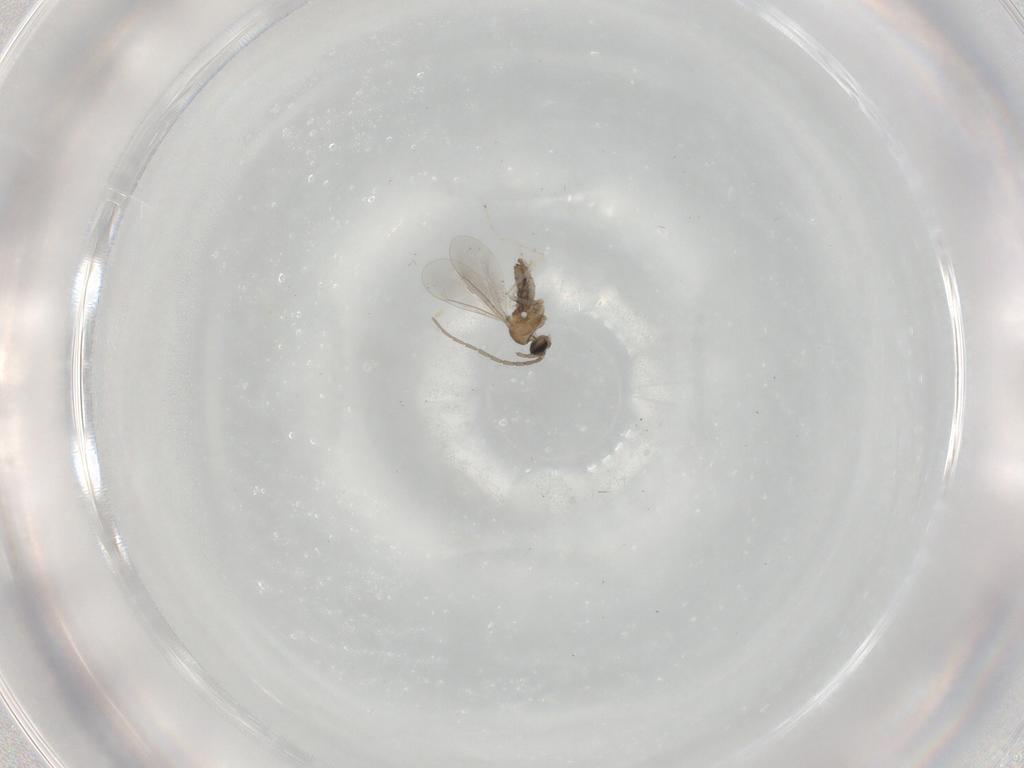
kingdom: Animalia
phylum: Arthropoda
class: Insecta
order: Diptera
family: Cecidomyiidae
